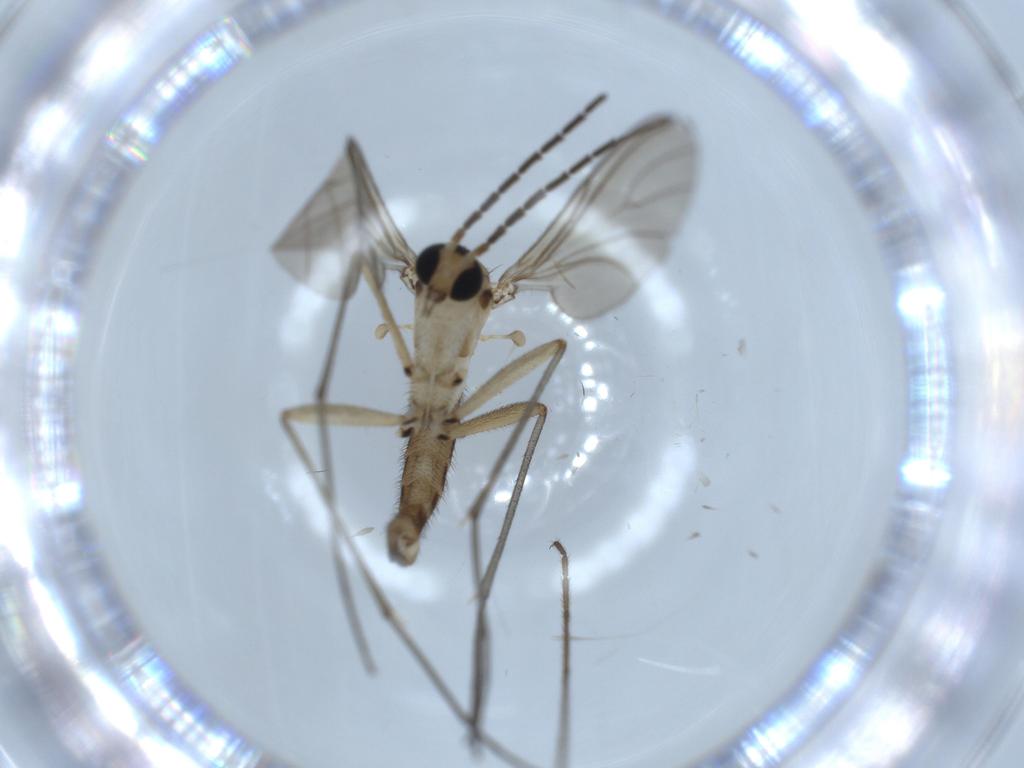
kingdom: Animalia
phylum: Arthropoda
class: Insecta
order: Diptera
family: Sciaridae
